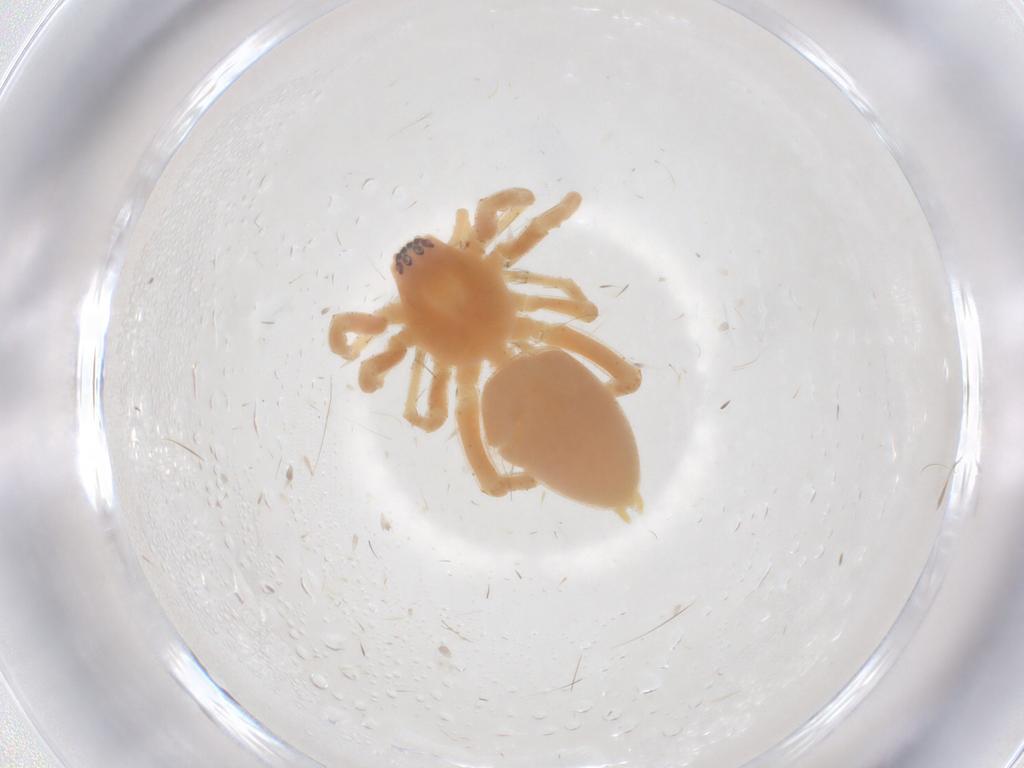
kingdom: Animalia
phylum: Arthropoda
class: Arachnida
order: Araneae
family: Anyphaenidae
